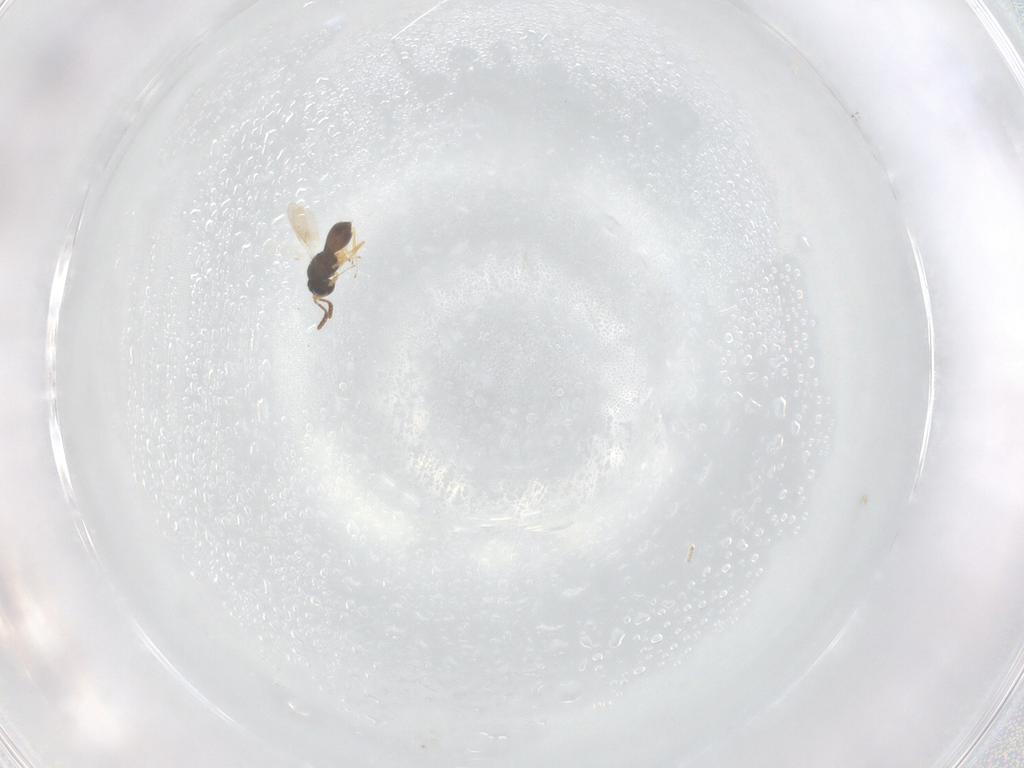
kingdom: Animalia
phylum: Arthropoda
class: Insecta
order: Hymenoptera
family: Scelionidae
